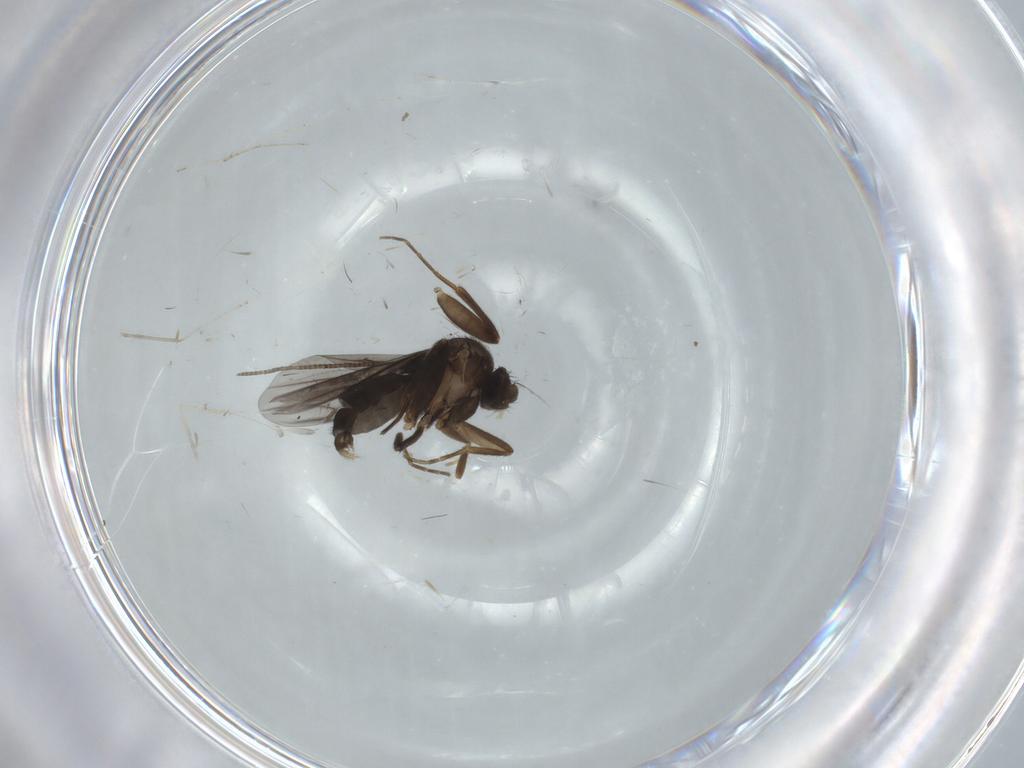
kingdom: Animalia
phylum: Arthropoda
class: Insecta
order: Diptera
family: Phoridae
